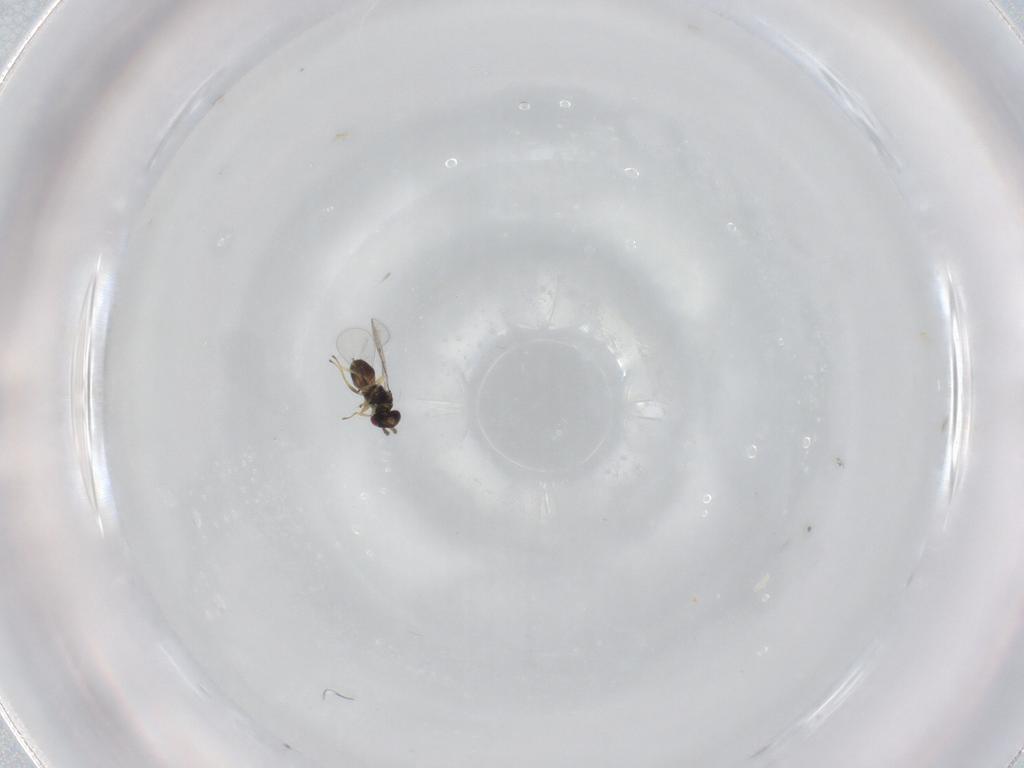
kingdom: Animalia
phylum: Arthropoda
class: Insecta
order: Hymenoptera
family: Eulophidae
